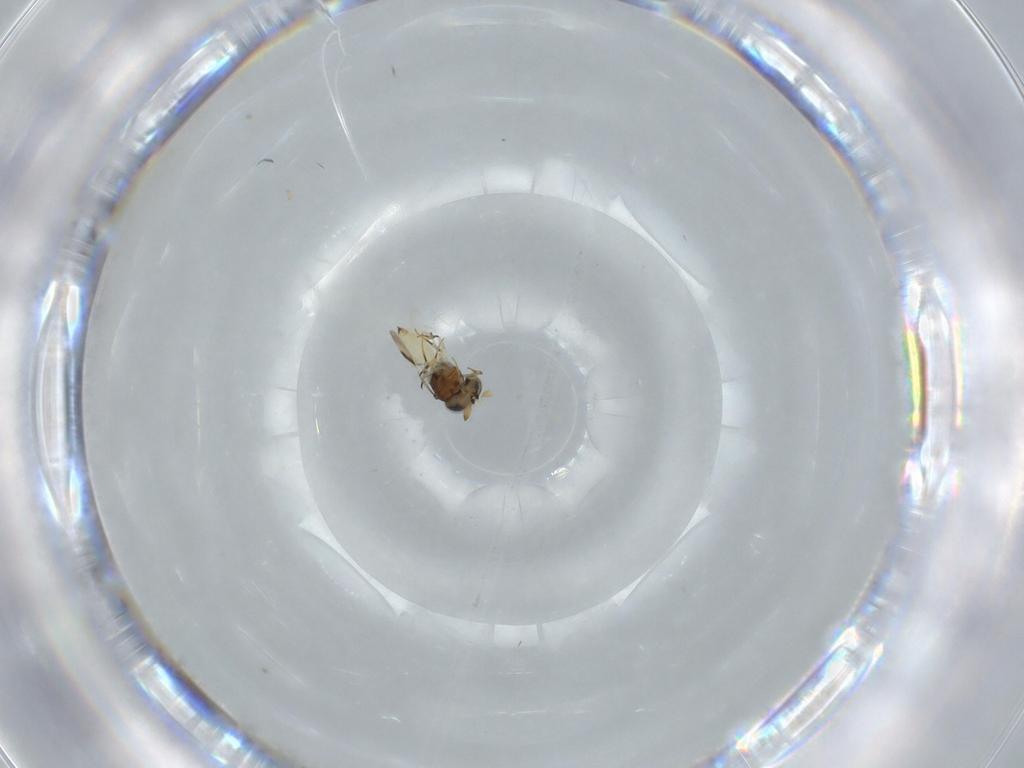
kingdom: Animalia
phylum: Arthropoda
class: Insecta
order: Hymenoptera
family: Scelionidae
